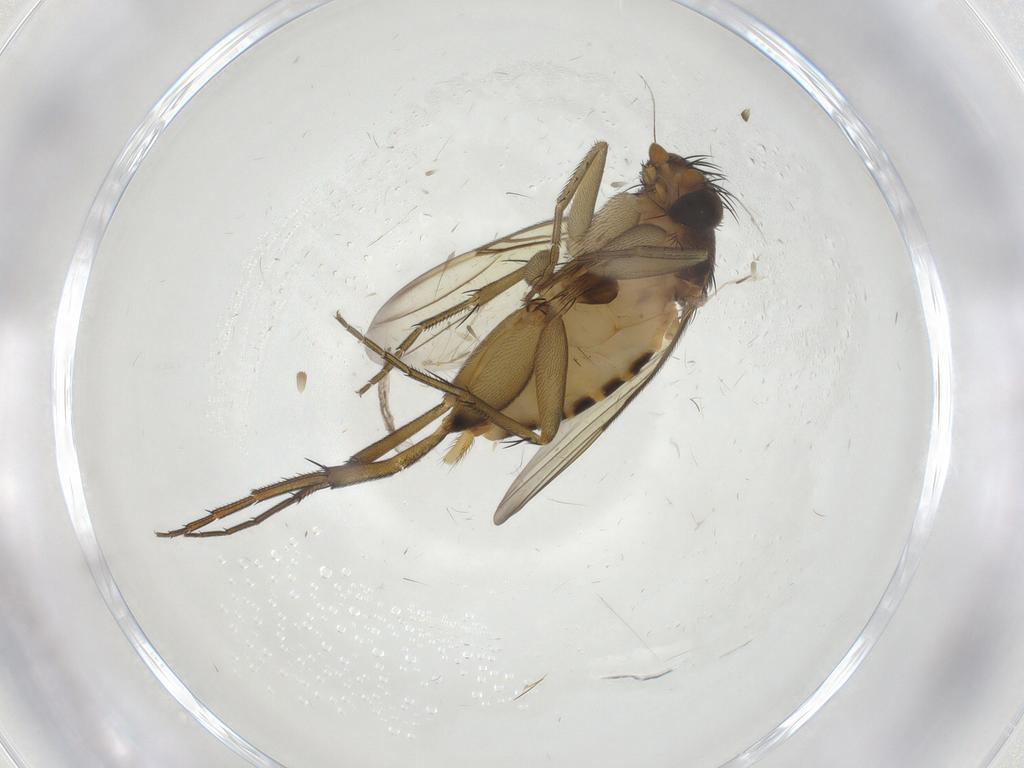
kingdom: Animalia
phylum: Arthropoda
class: Insecta
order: Diptera
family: Phoridae
